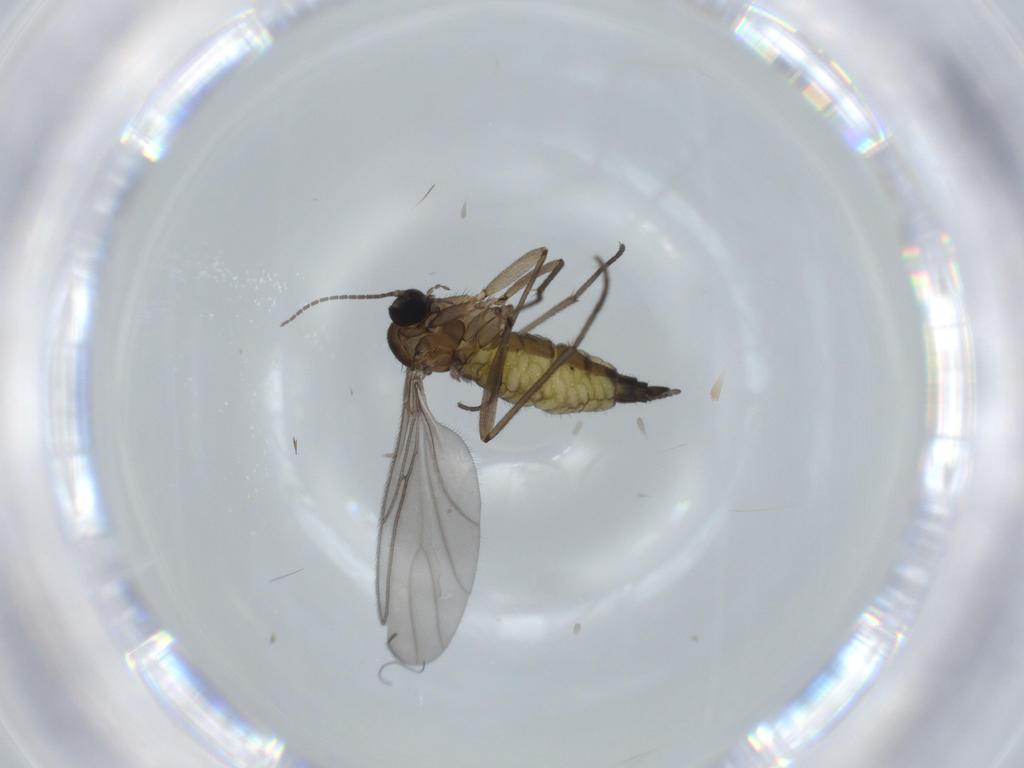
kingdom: Animalia
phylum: Arthropoda
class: Insecta
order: Diptera
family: Sciaridae
